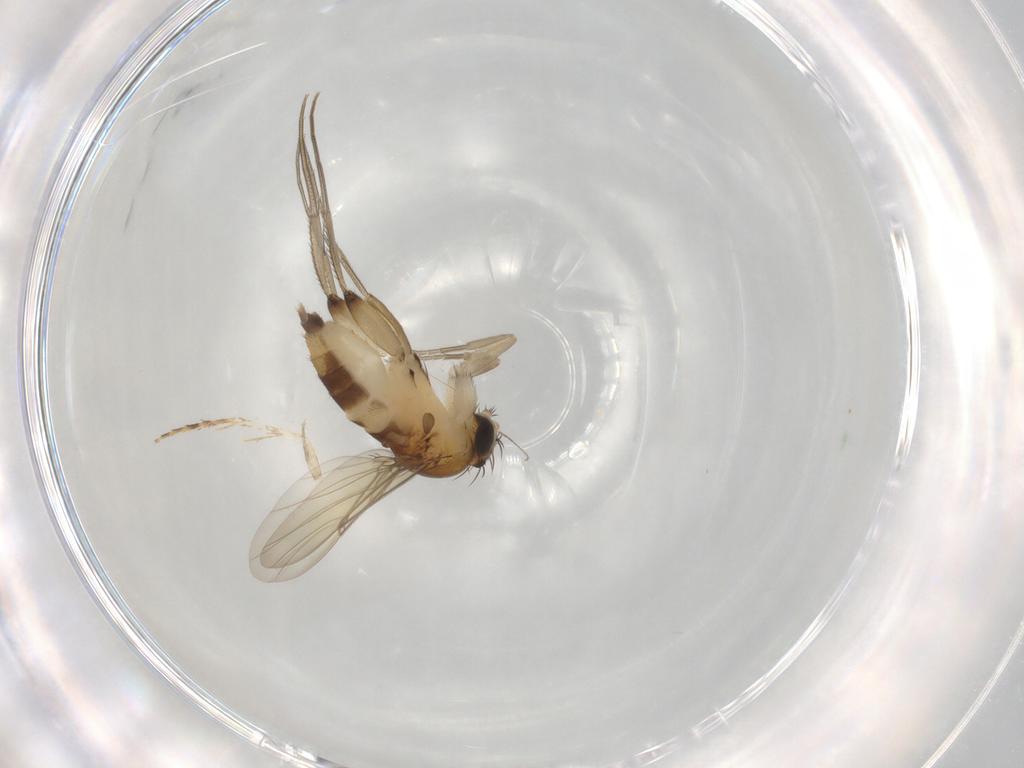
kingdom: Animalia
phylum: Arthropoda
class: Insecta
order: Diptera
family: Phoridae
